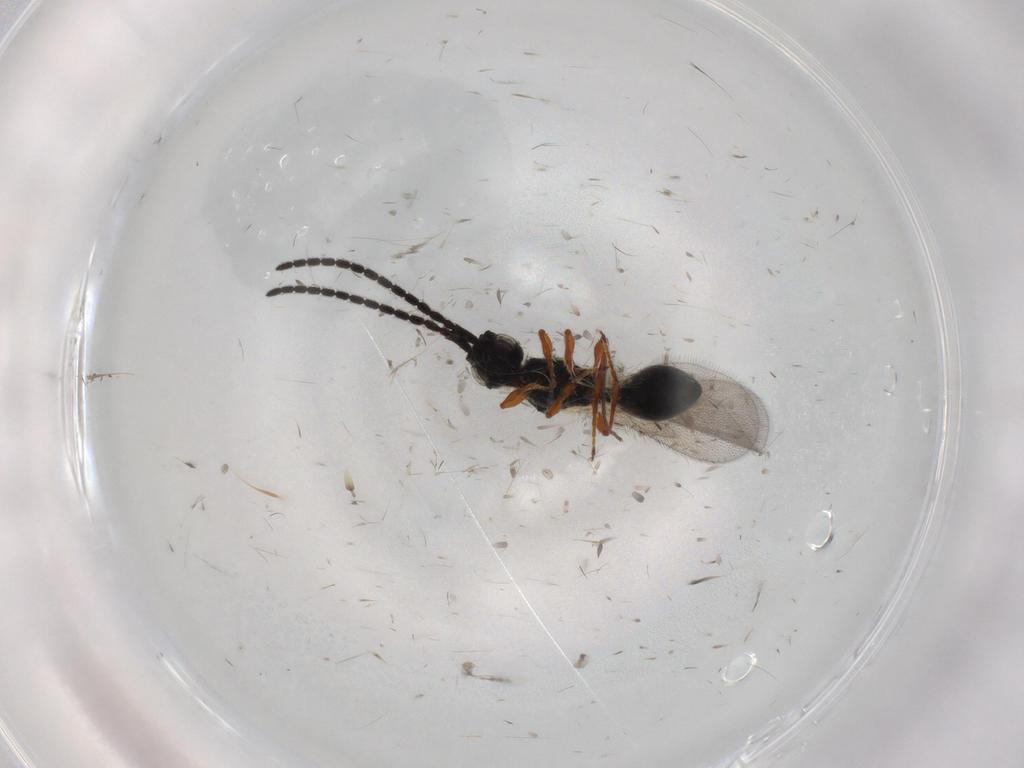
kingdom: Animalia
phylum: Arthropoda
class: Insecta
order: Hymenoptera
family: Diapriidae
